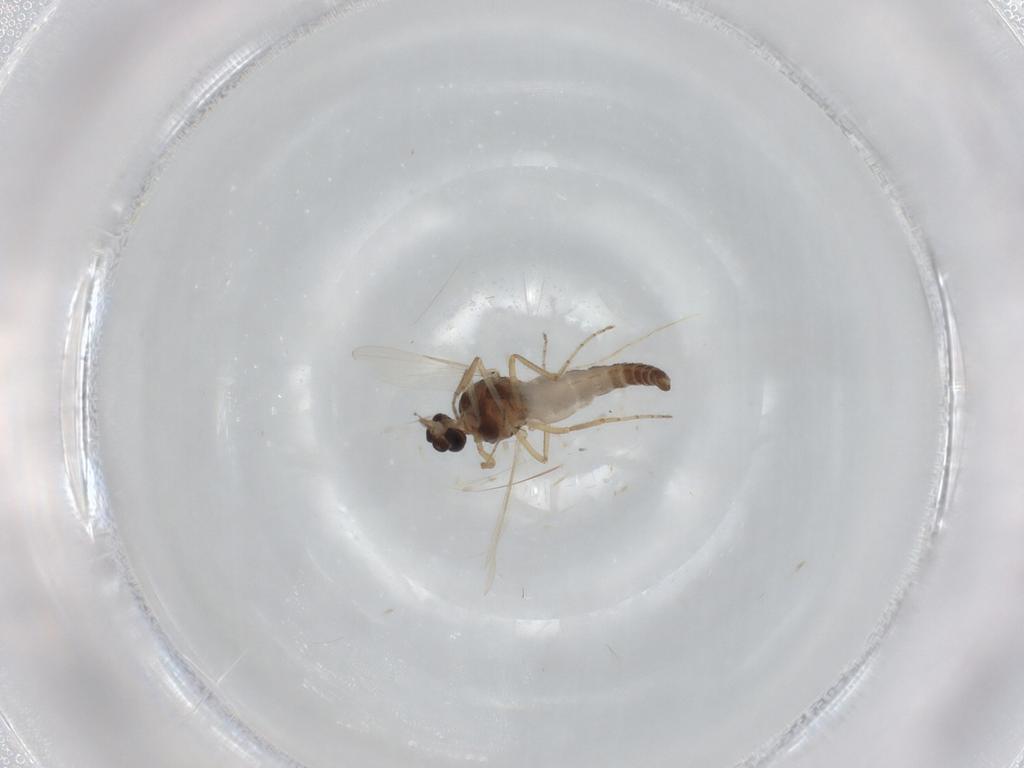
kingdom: Animalia
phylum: Arthropoda
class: Insecta
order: Diptera
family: Ceratopogonidae
